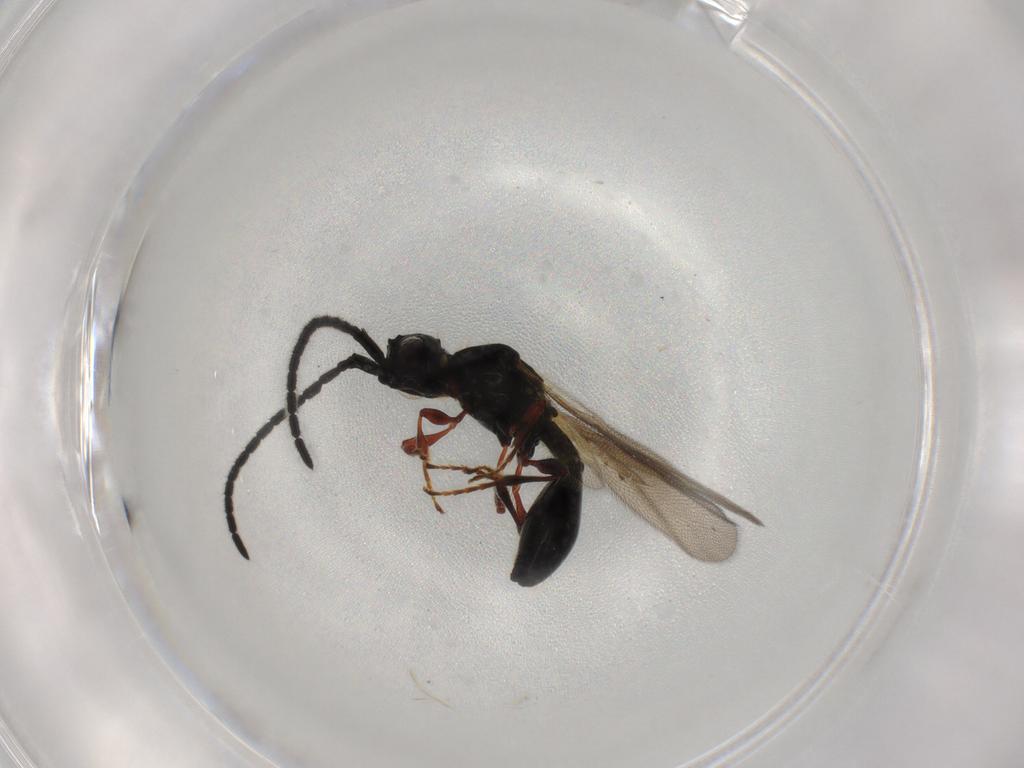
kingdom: Animalia
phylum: Arthropoda
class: Insecta
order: Hymenoptera
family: Diapriidae
